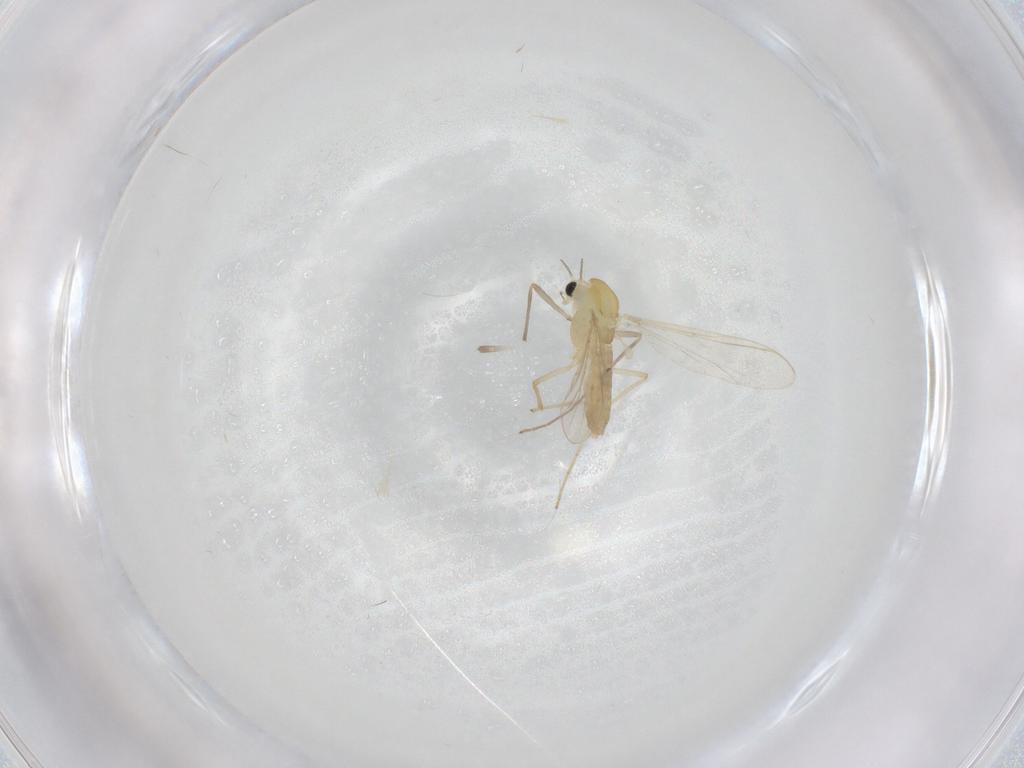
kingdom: Animalia
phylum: Arthropoda
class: Insecta
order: Diptera
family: Chironomidae
